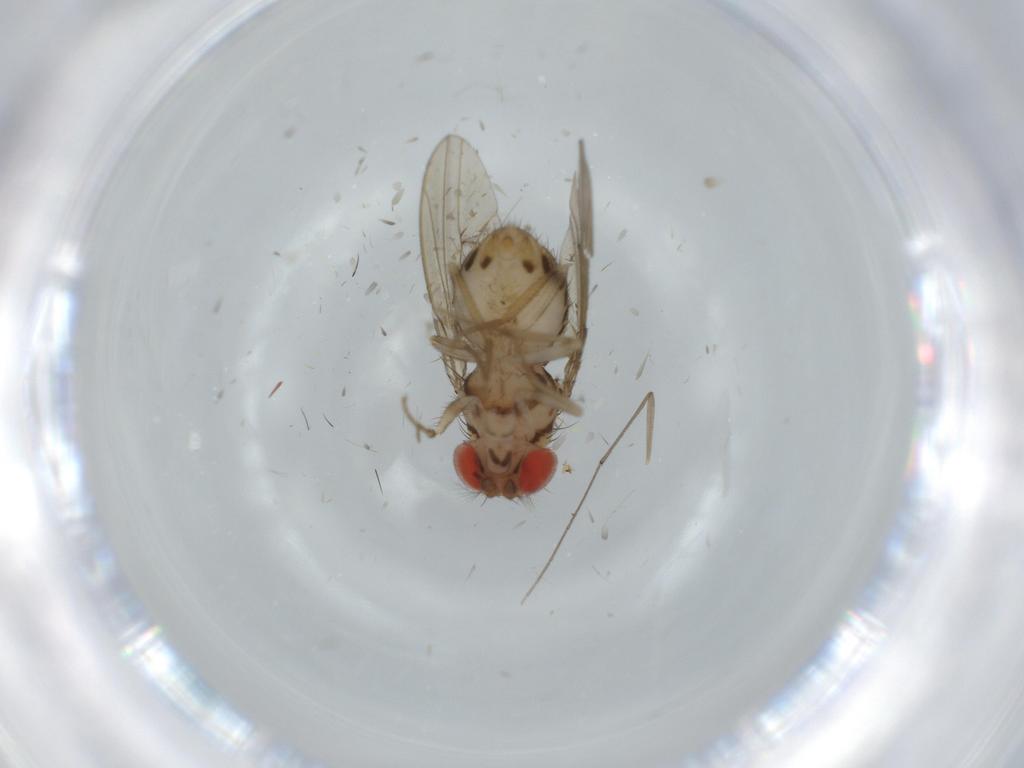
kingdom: Animalia
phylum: Arthropoda
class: Insecta
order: Diptera
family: Drosophilidae
